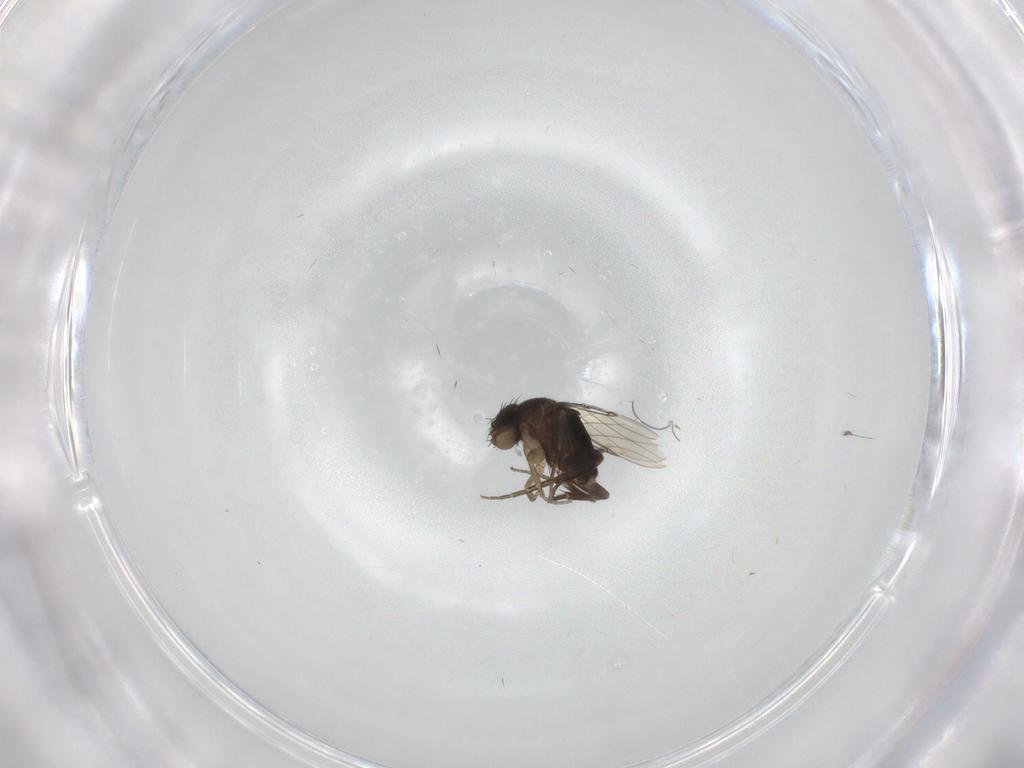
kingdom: Animalia
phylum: Arthropoda
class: Insecta
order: Diptera
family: Phoridae
